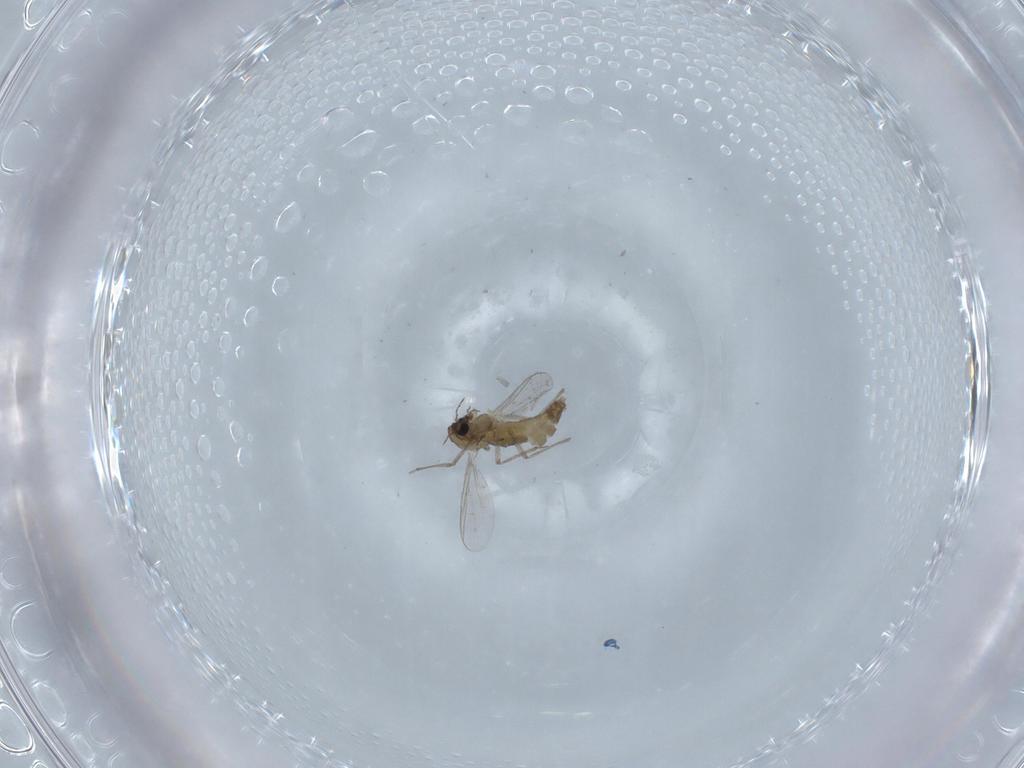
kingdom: Animalia
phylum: Arthropoda
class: Insecta
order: Diptera
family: Chironomidae
